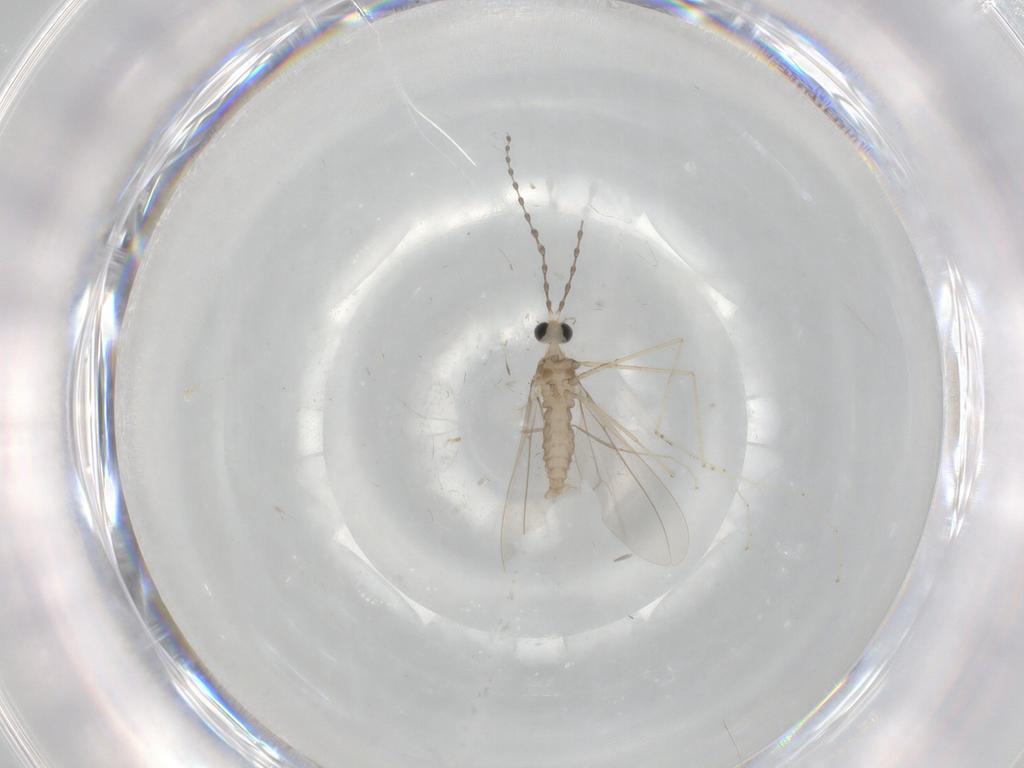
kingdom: Animalia
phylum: Arthropoda
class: Insecta
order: Diptera
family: Cecidomyiidae
